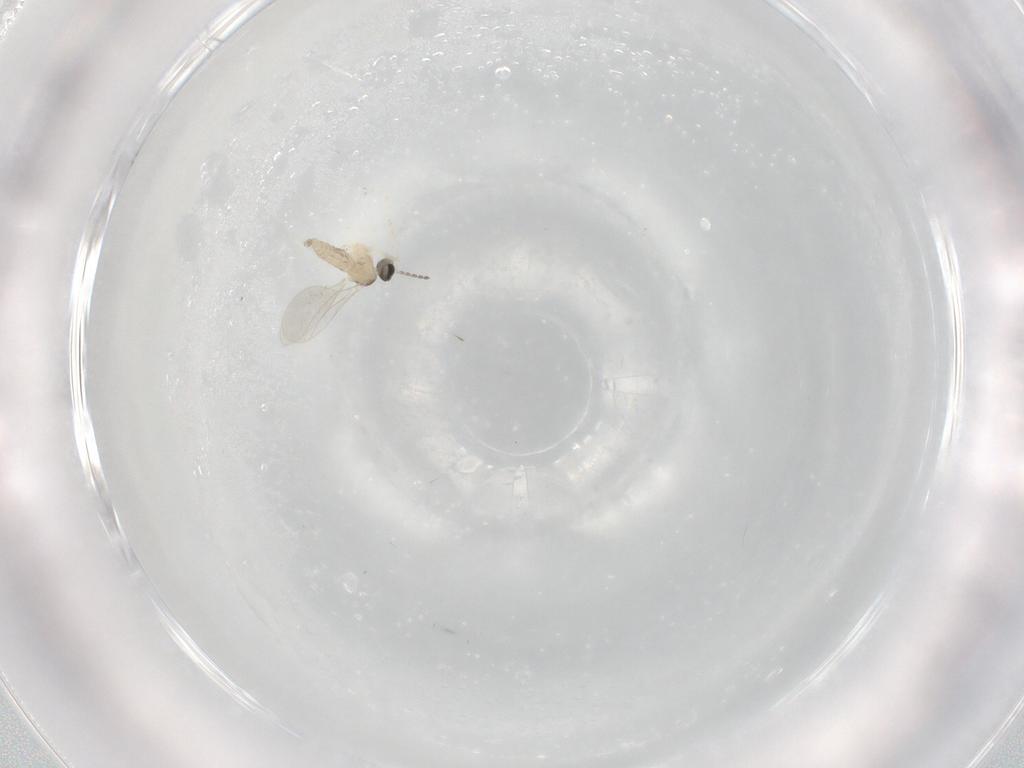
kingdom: Animalia
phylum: Arthropoda
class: Insecta
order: Diptera
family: Cecidomyiidae
